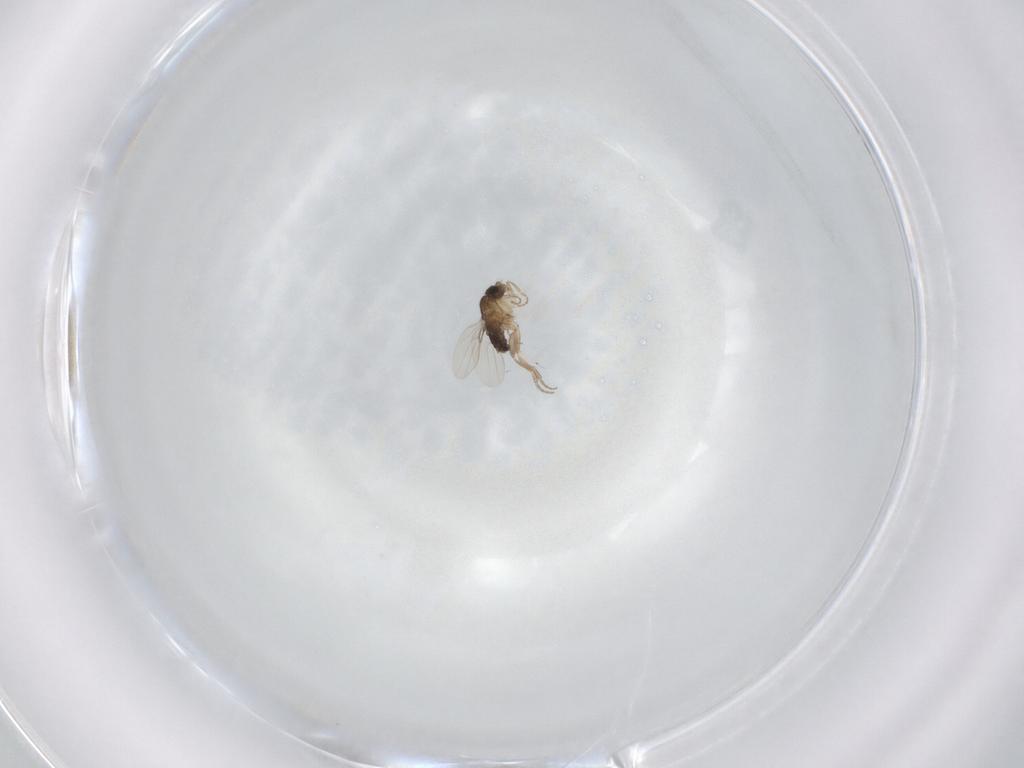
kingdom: Animalia
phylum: Arthropoda
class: Insecta
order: Diptera
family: Phoridae
